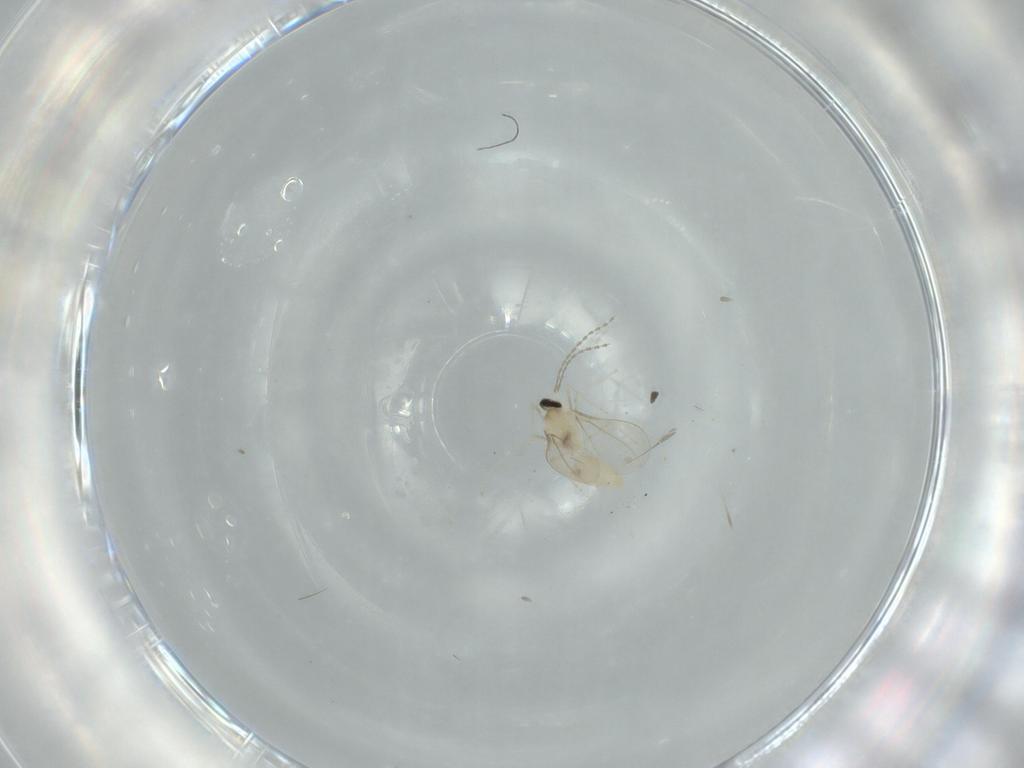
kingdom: Animalia
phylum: Arthropoda
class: Insecta
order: Diptera
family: Cecidomyiidae
